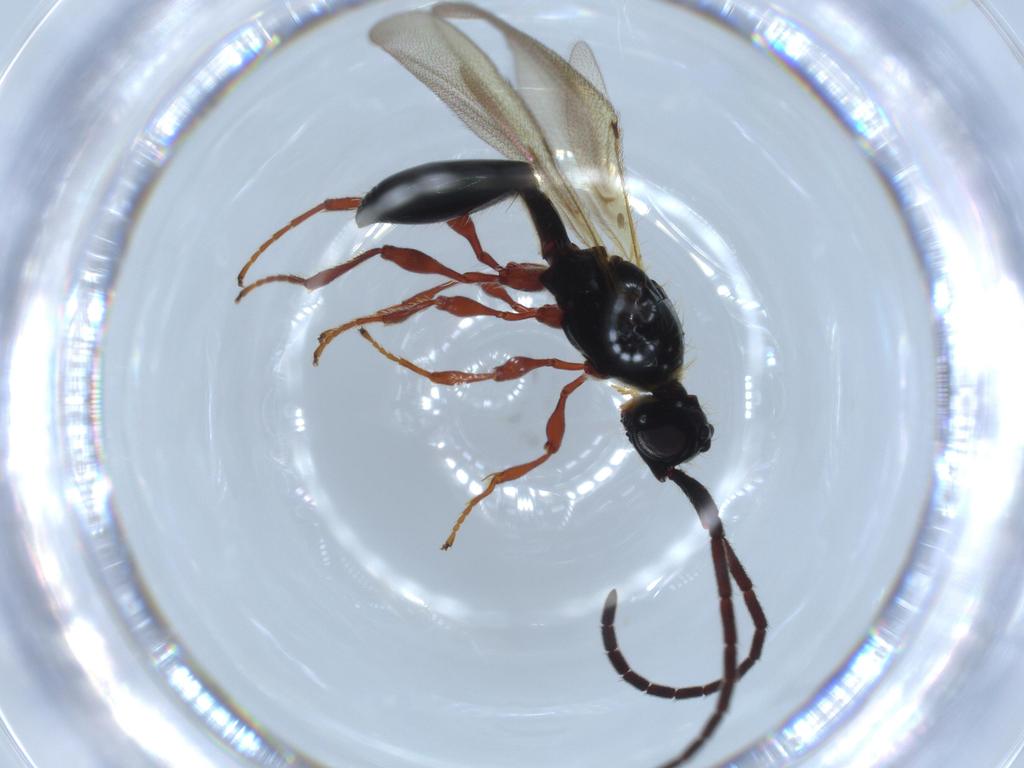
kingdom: Animalia
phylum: Arthropoda
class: Insecta
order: Hymenoptera
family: Diapriidae
